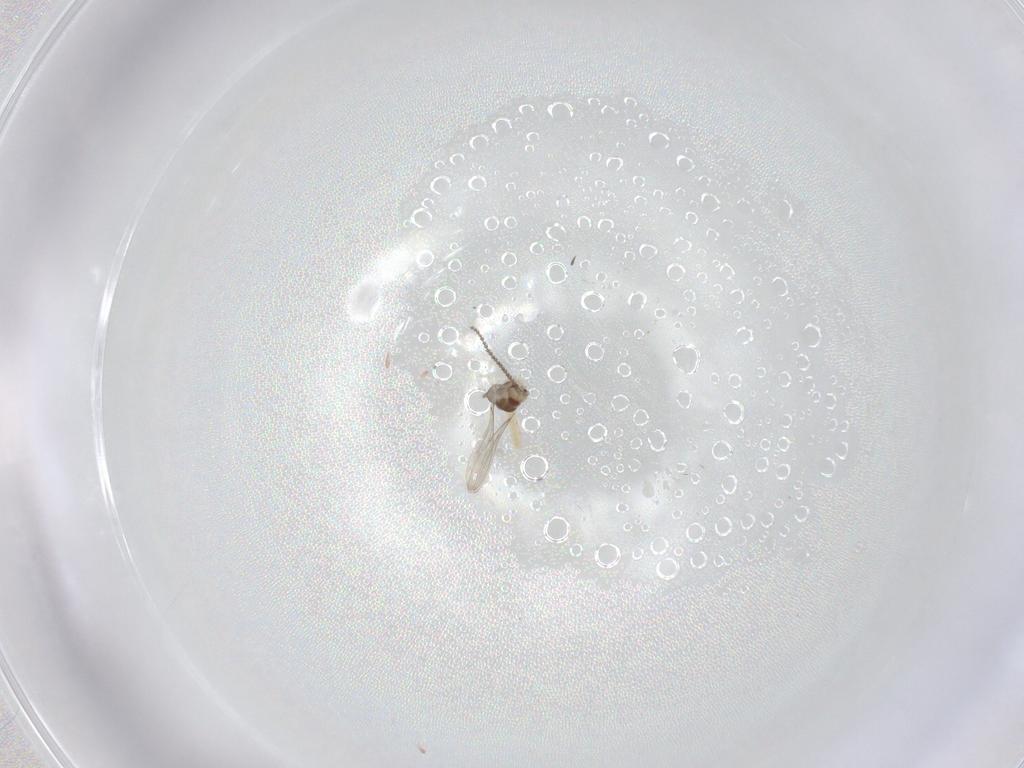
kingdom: Animalia
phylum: Arthropoda
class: Insecta
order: Diptera
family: Cecidomyiidae
